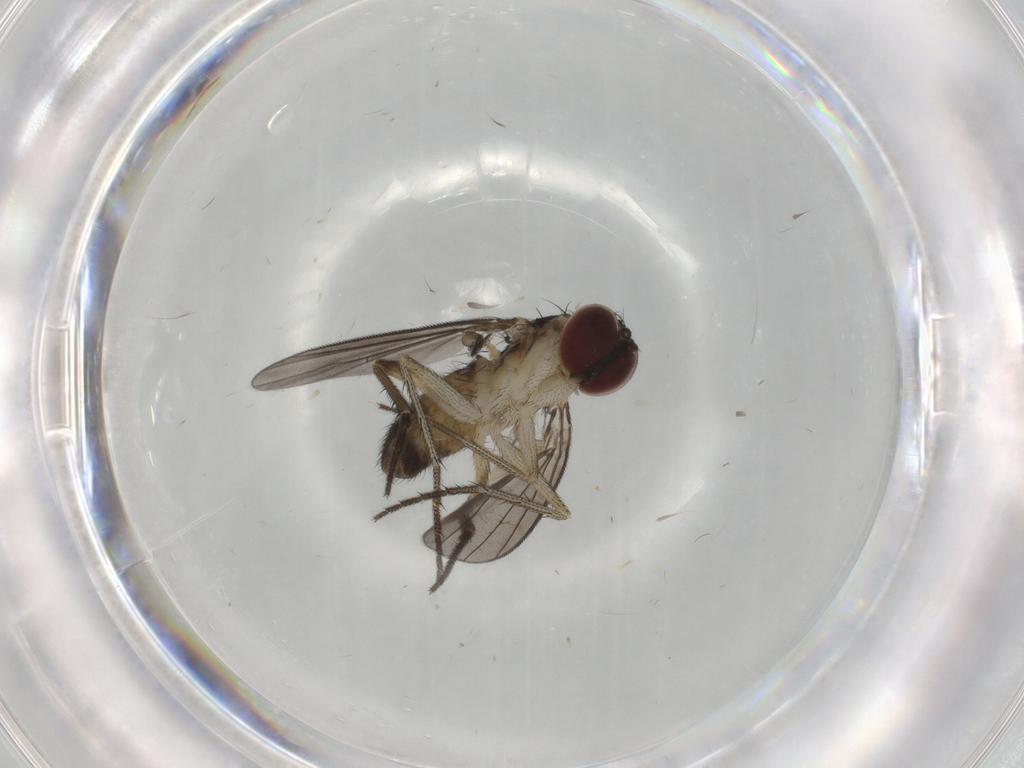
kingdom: Animalia
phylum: Arthropoda
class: Insecta
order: Diptera
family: Dolichopodidae
